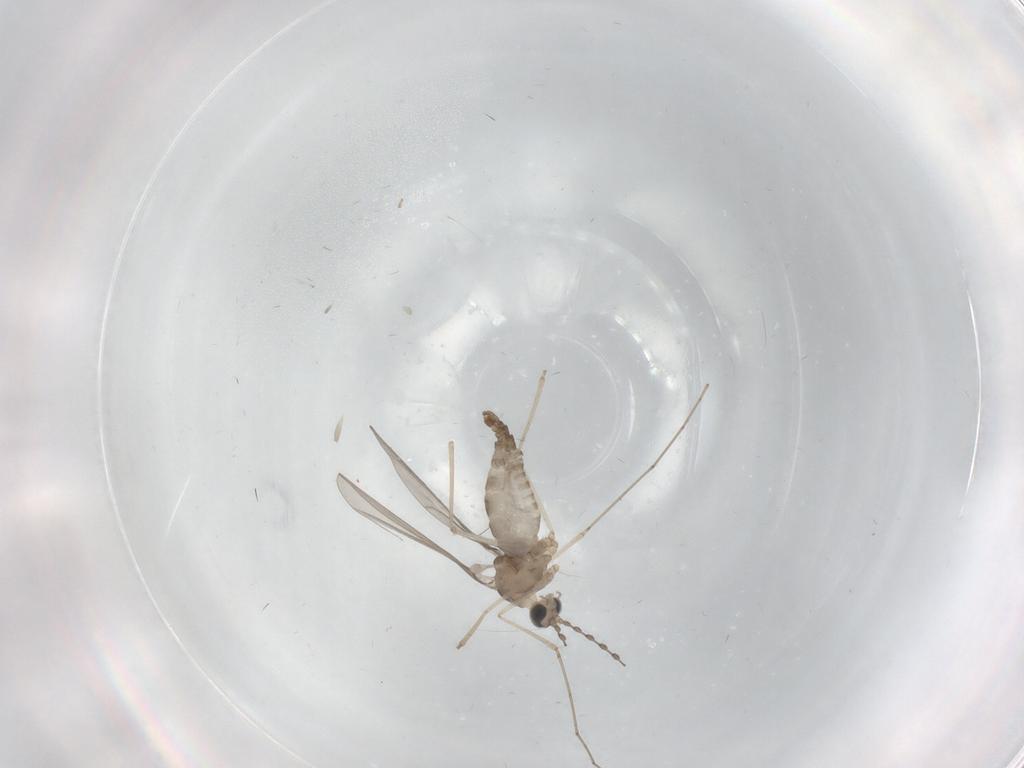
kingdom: Animalia
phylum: Arthropoda
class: Insecta
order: Diptera
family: Cecidomyiidae
